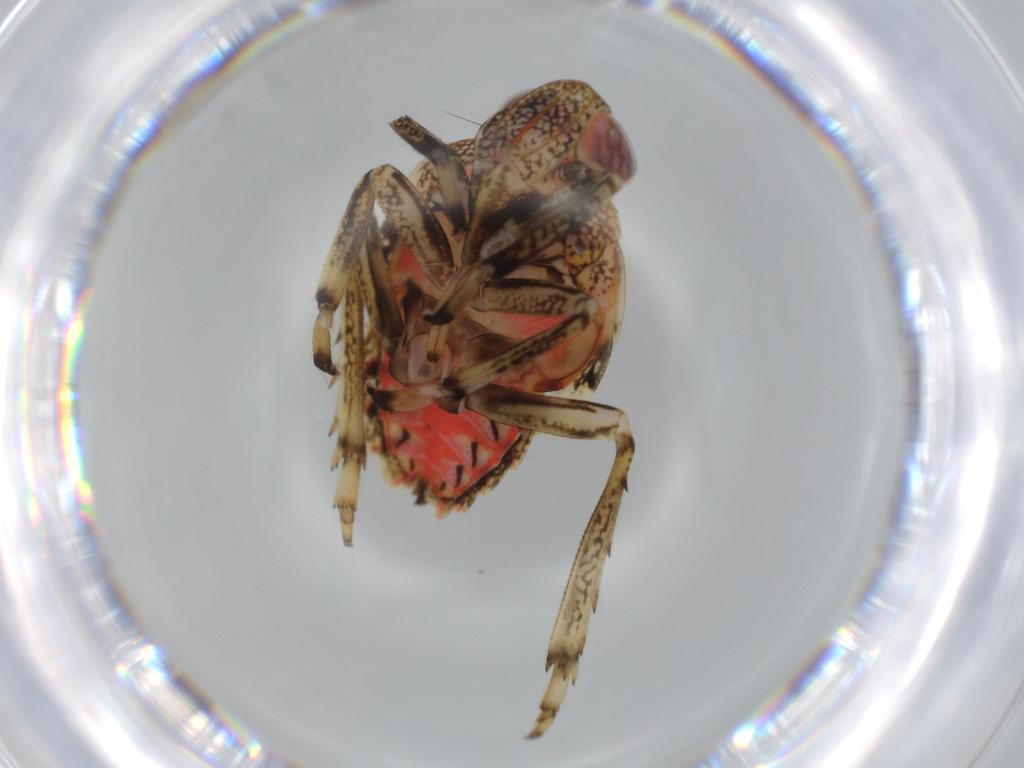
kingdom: Animalia
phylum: Arthropoda
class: Insecta
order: Hemiptera
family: Issidae
